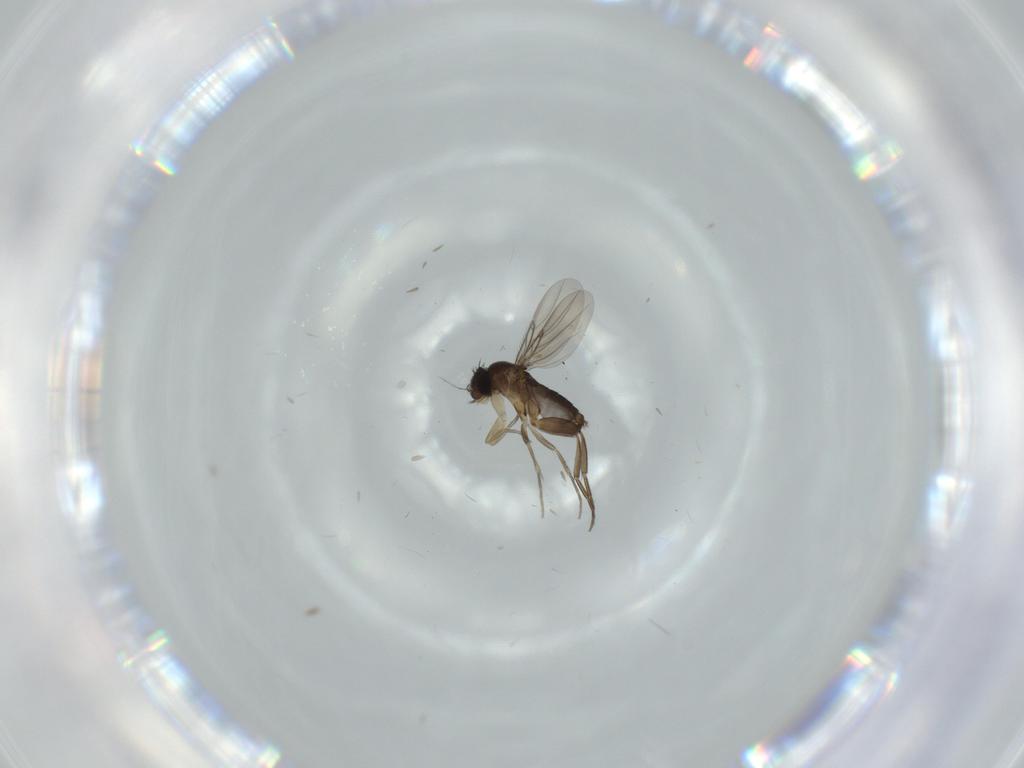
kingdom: Animalia
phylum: Arthropoda
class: Insecta
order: Diptera
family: Phoridae
